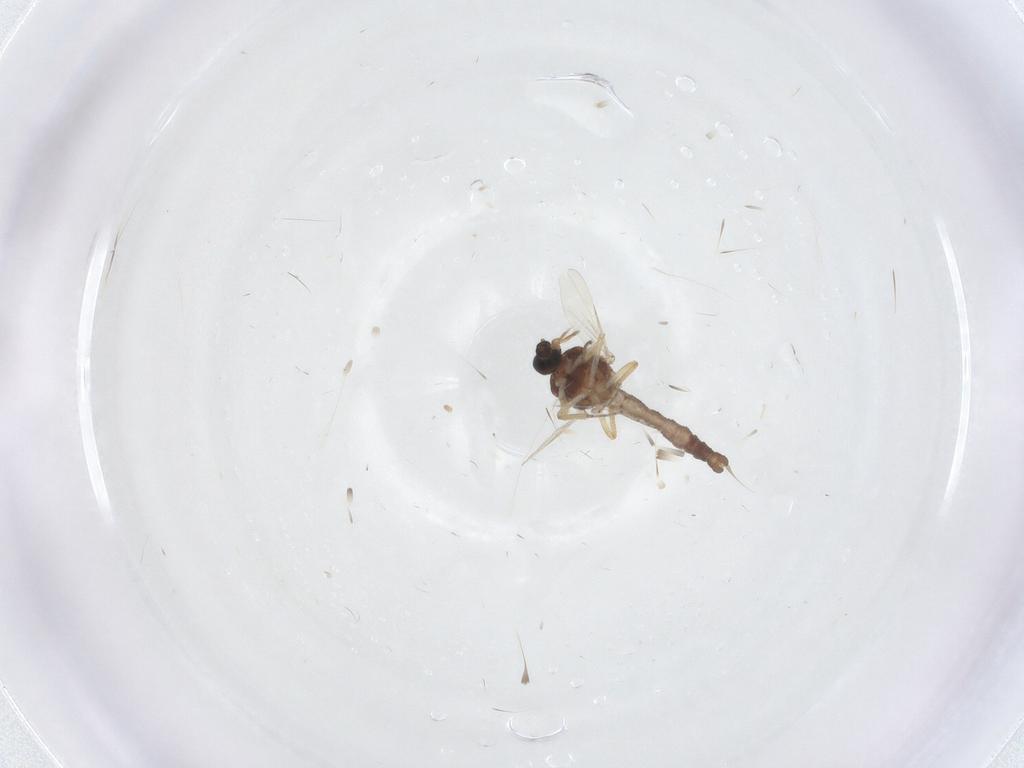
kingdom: Animalia
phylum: Arthropoda
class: Insecta
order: Diptera
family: Ceratopogonidae
